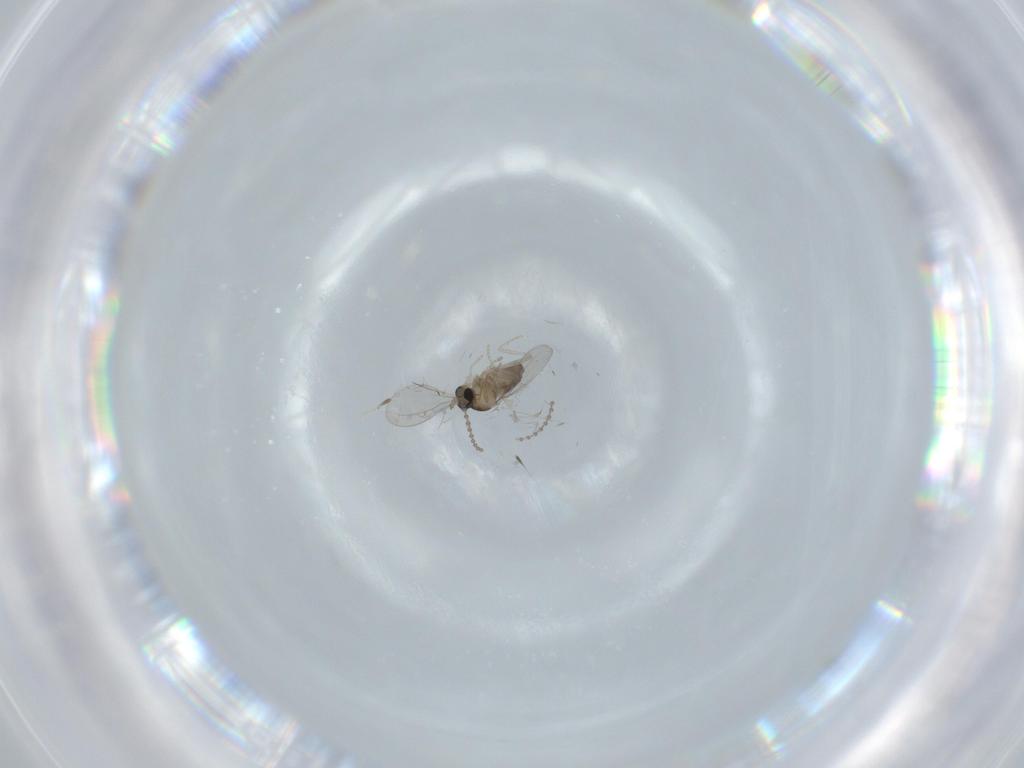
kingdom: Animalia
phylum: Arthropoda
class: Insecta
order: Diptera
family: Cecidomyiidae
